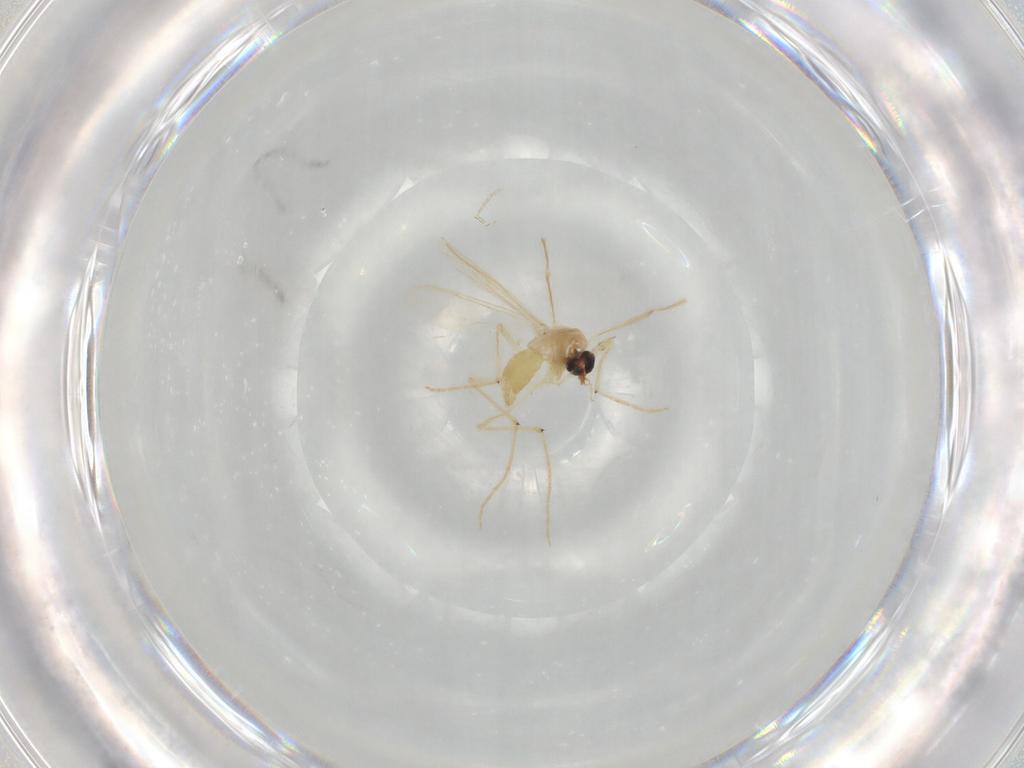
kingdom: Animalia
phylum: Arthropoda
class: Insecta
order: Diptera
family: Chironomidae
